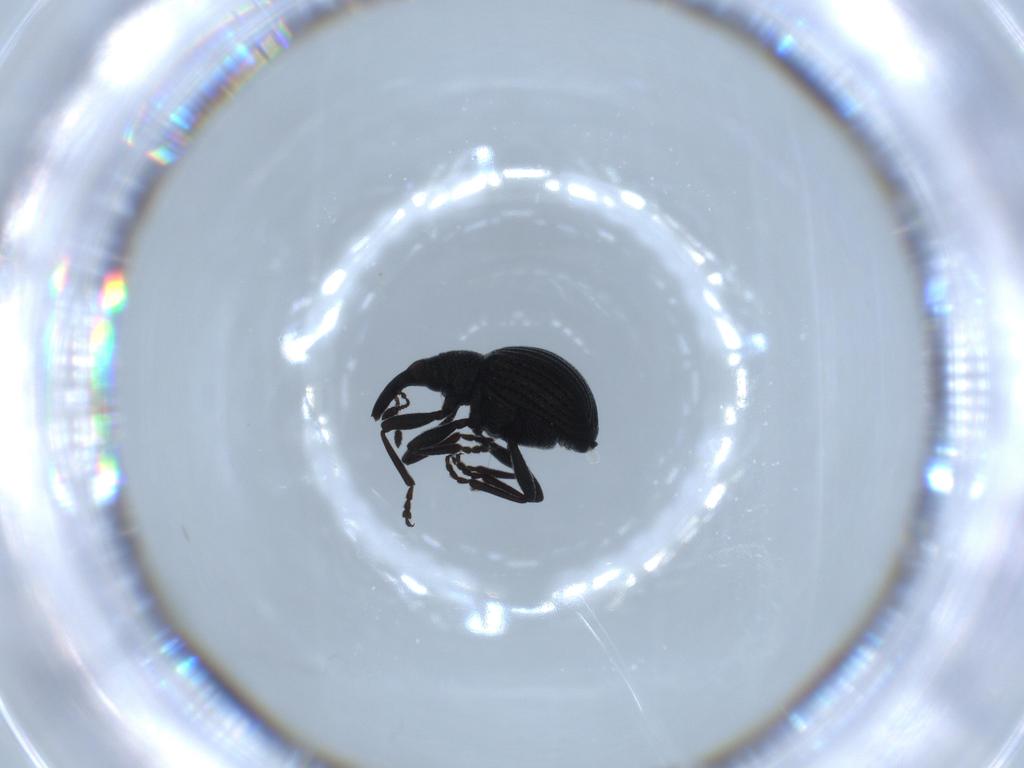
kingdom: Animalia
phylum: Arthropoda
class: Insecta
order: Coleoptera
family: Brentidae
